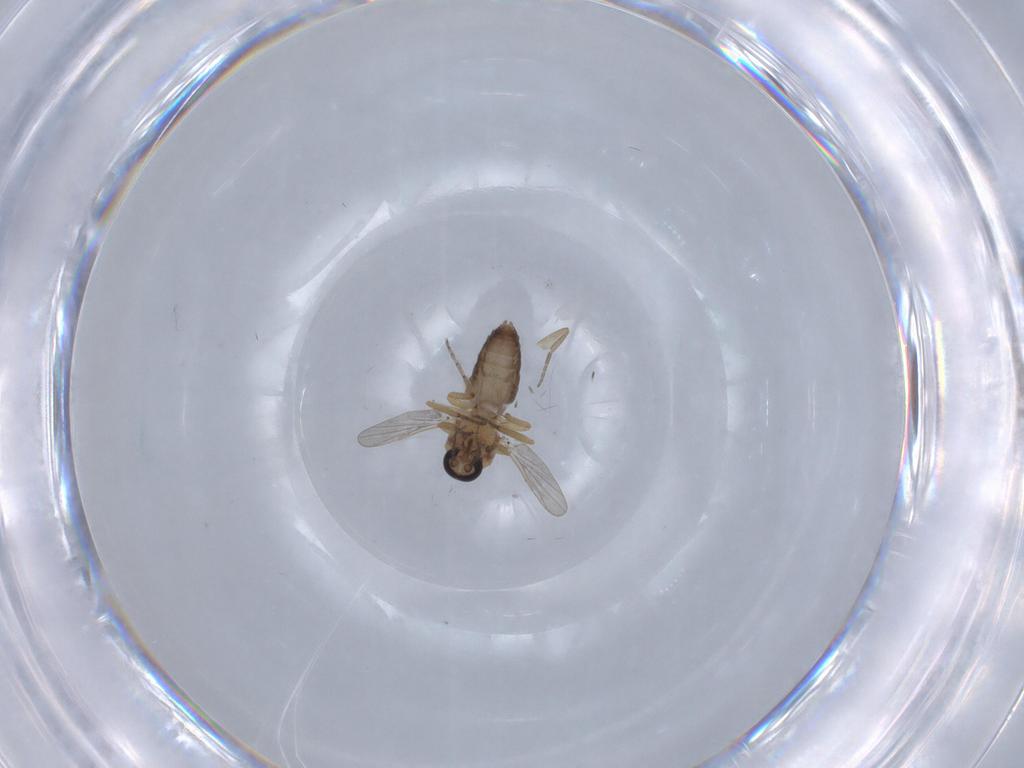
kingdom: Animalia
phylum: Arthropoda
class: Insecta
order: Diptera
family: Ceratopogonidae
